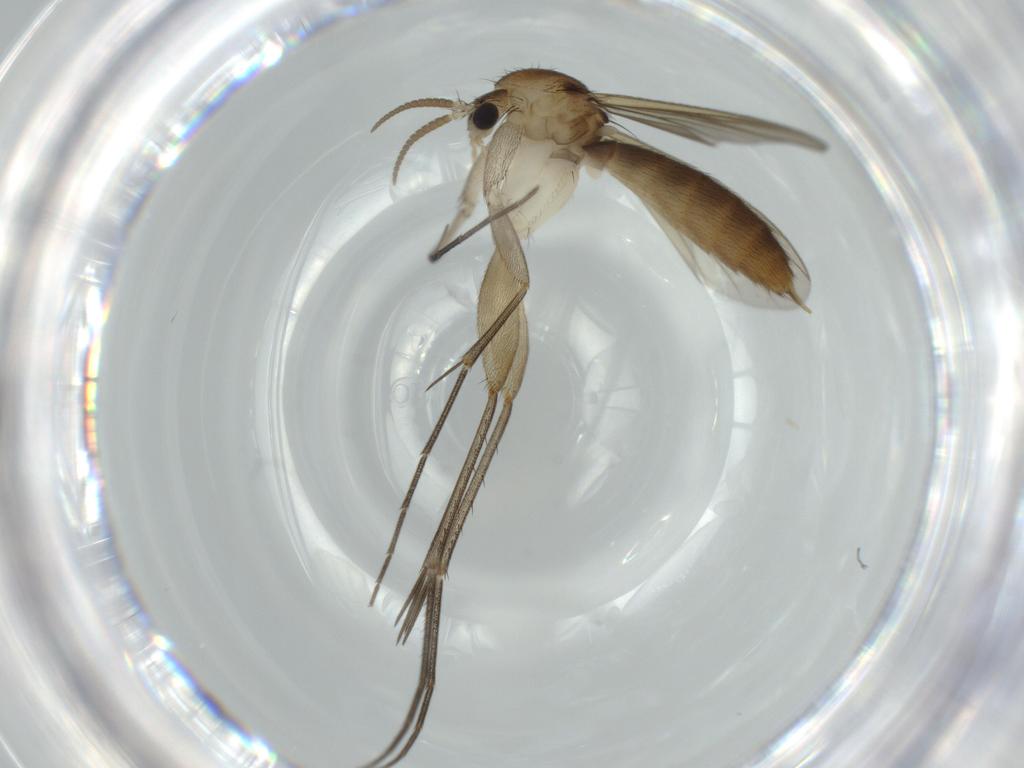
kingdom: Animalia
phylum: Arthropoda
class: Insecta
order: Diptera
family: Mycetophilidae
